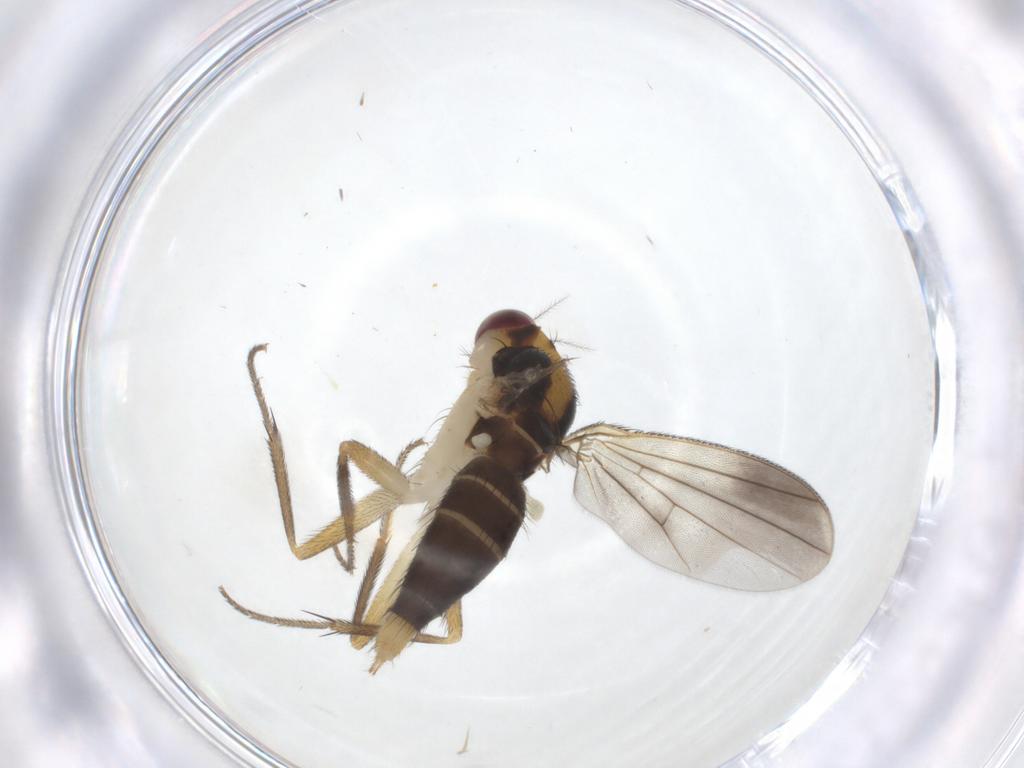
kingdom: Animalia
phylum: Arthropoda
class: Insecta
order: Diptera
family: Clusiidae
